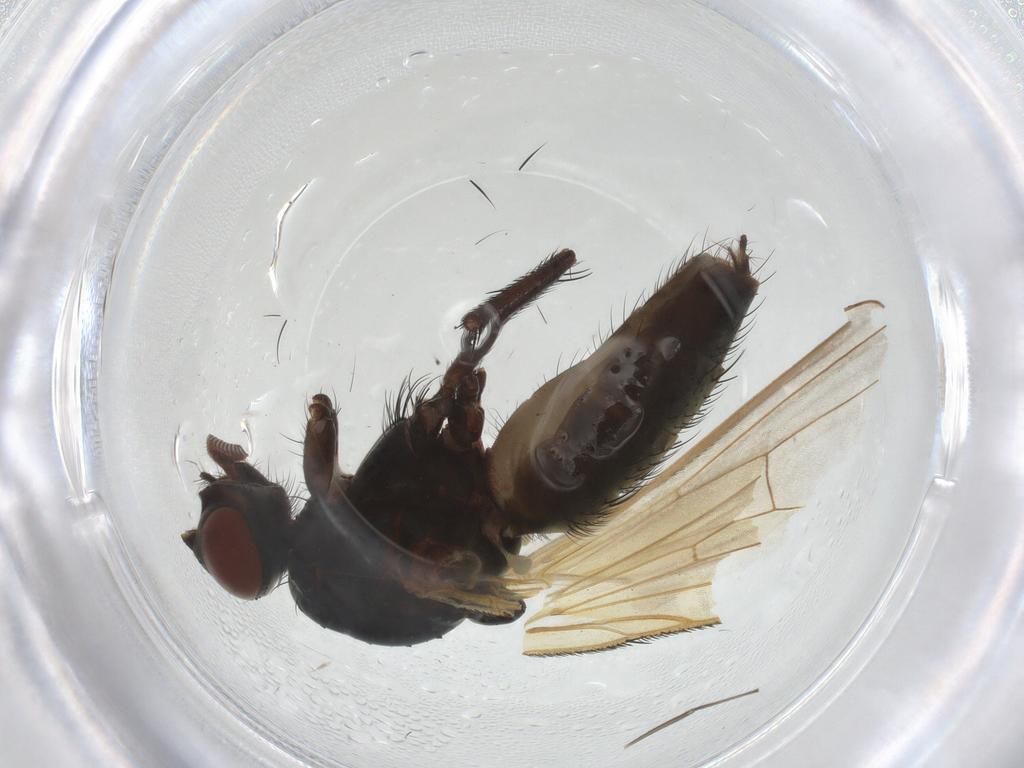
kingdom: Animalia
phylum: Arthropoda
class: Insecta
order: Diptera
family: Anthomyiidae
